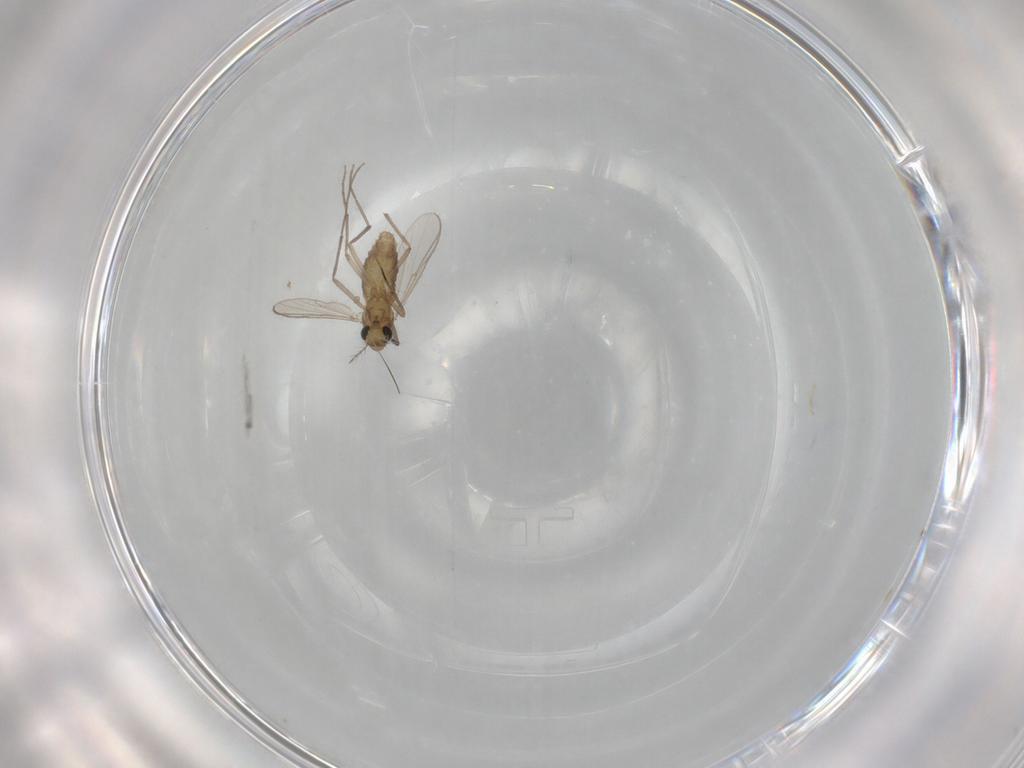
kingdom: Animalia
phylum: Arthropoda
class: Insecta
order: Diptera
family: Chironomidae
